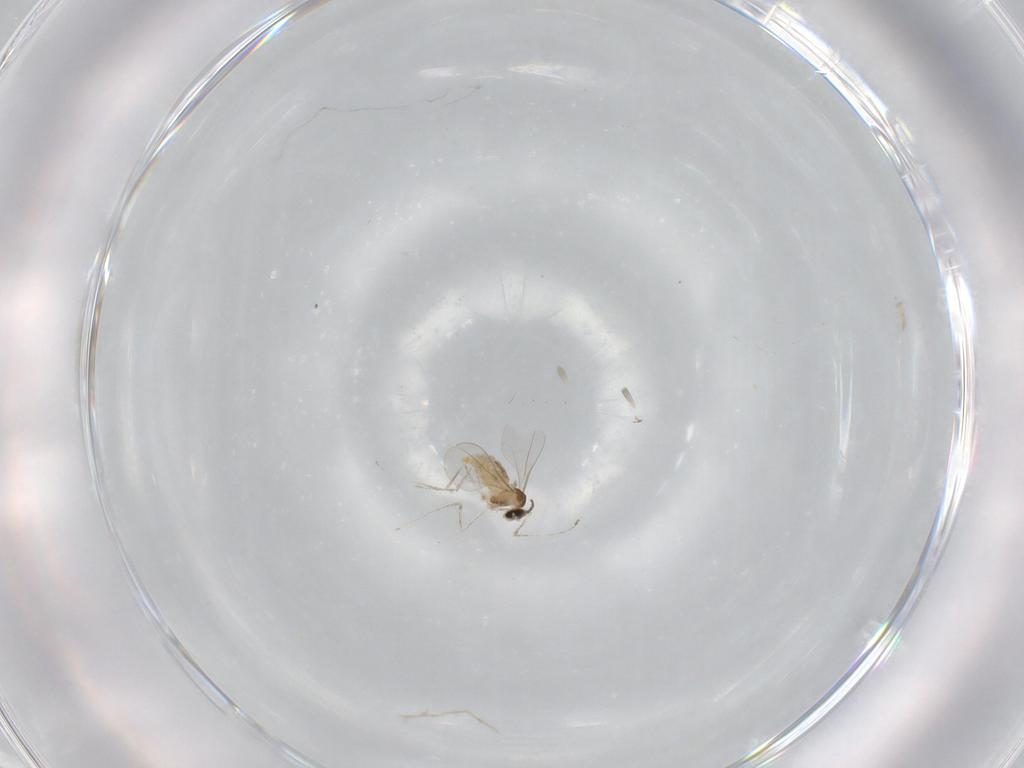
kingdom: Animalia
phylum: Arthropoda
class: Insecta
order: Diptera
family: Cecidomyiidae
